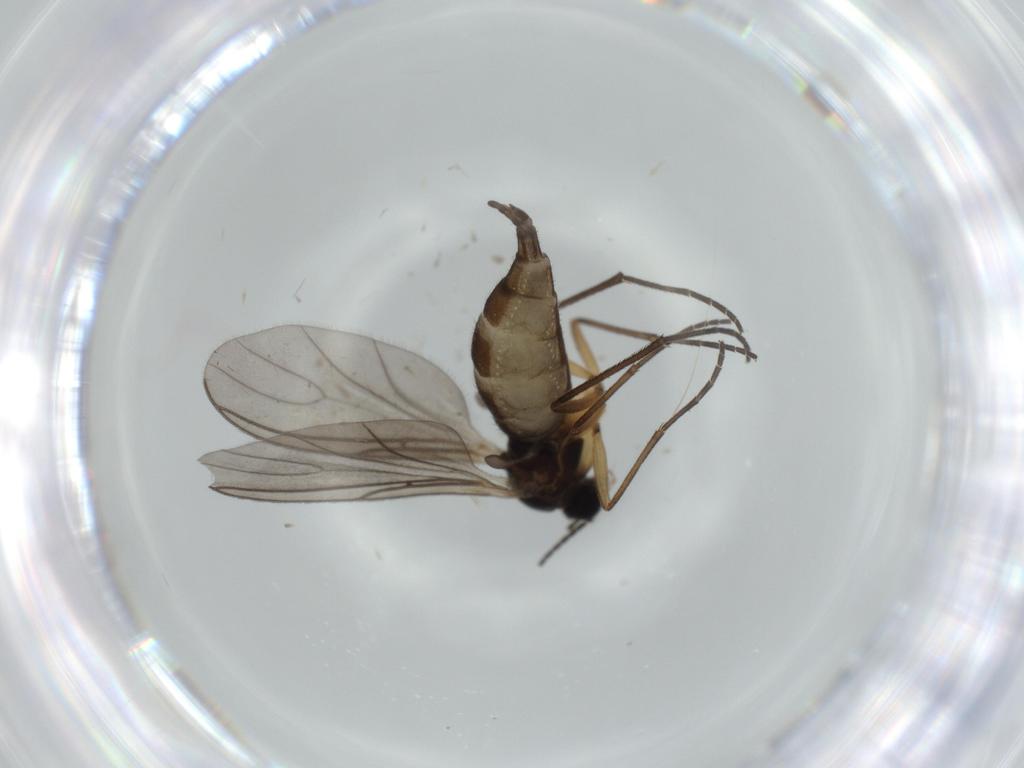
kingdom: Animalia
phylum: Arthropoda
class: Insecta
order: Diptera
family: Sciaridae
